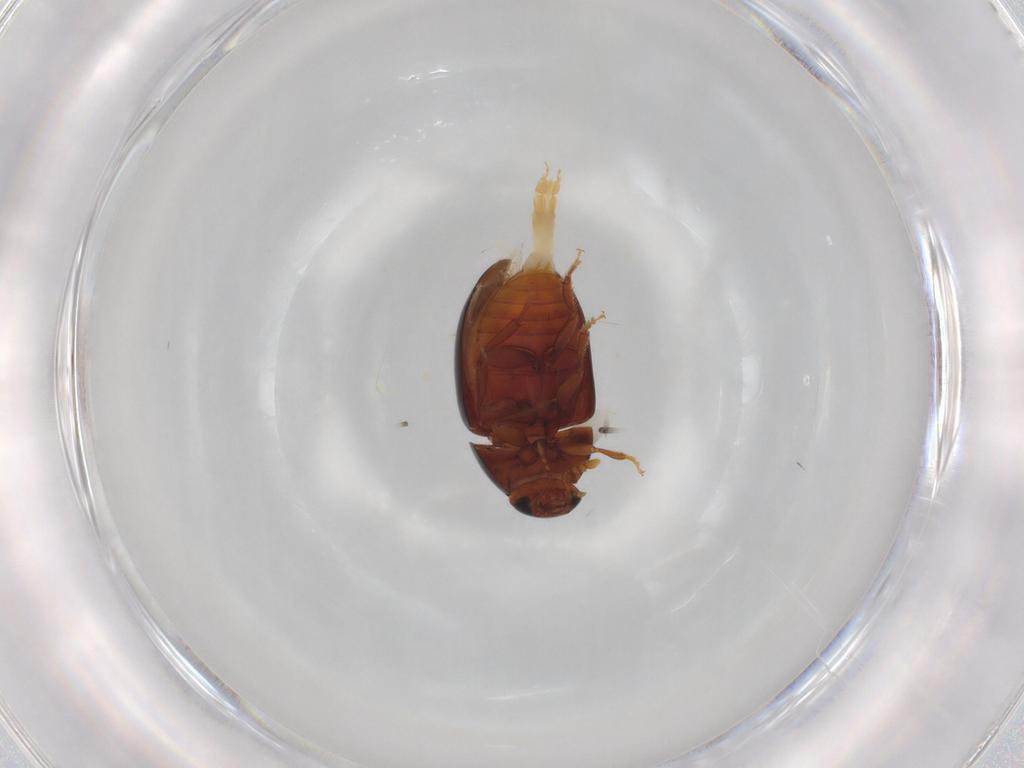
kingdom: Animalia
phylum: Arthropoda
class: Insecta
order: Coleoptera
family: Phalacridae
